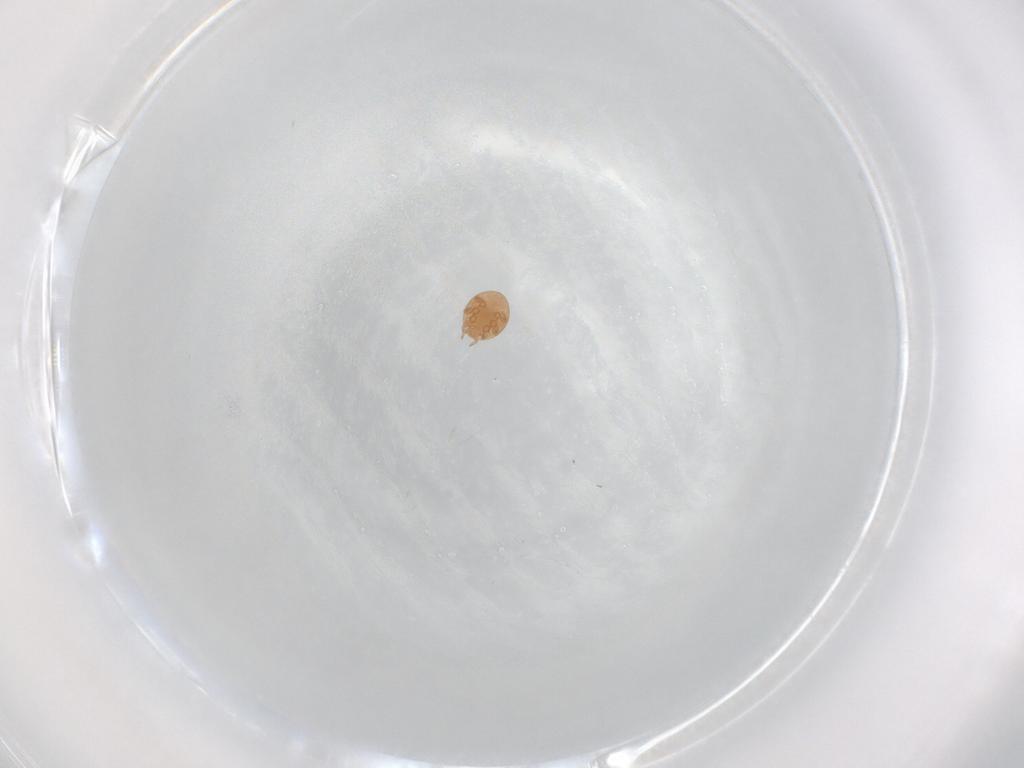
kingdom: Animalia
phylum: Arthropoda
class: Arachnida
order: Mesostigmata
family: Trematuridae
